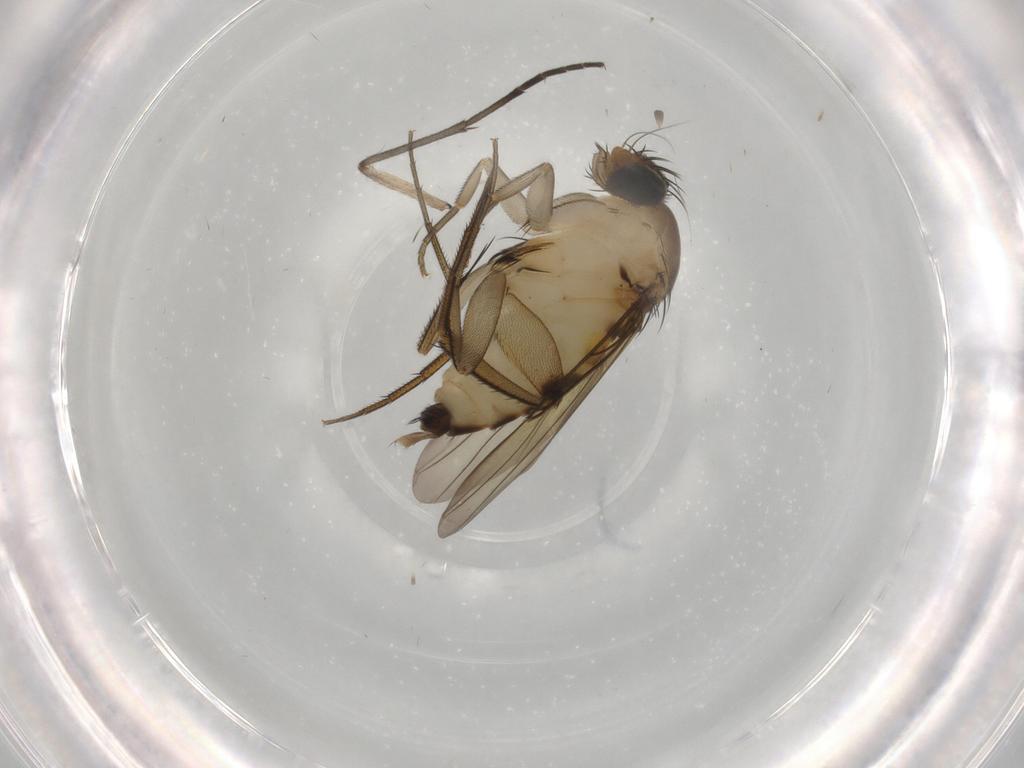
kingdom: Animalia
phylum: Arthropoda
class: Insecta
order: Diptera
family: Phoridae
